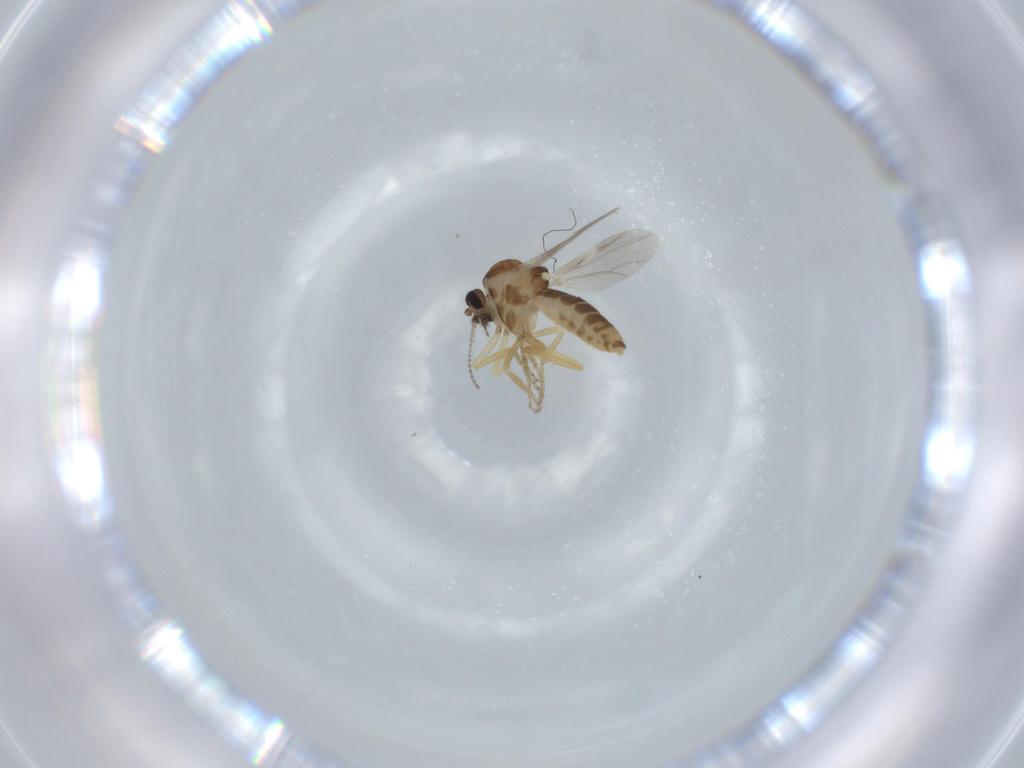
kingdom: Animalia
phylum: Arthropoda
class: Insecta
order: Diptera
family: Ceratopogonidae
